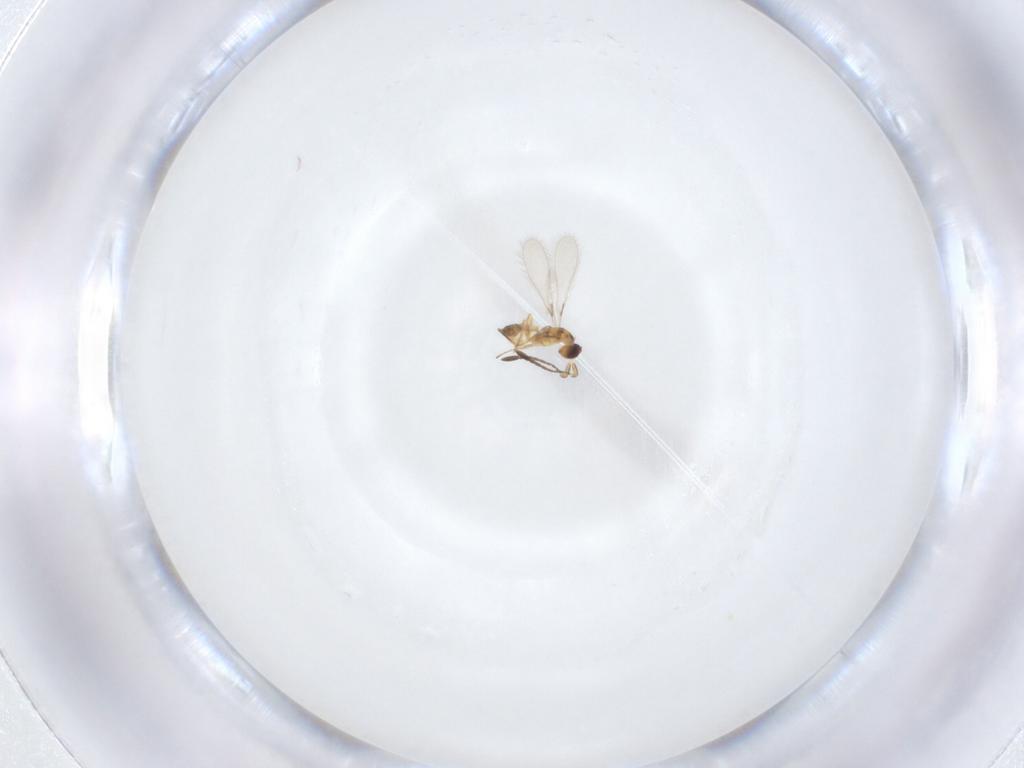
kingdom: Animalia
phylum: Arthropoda
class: Insecta
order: Hymenoptera
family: Mymaridae
